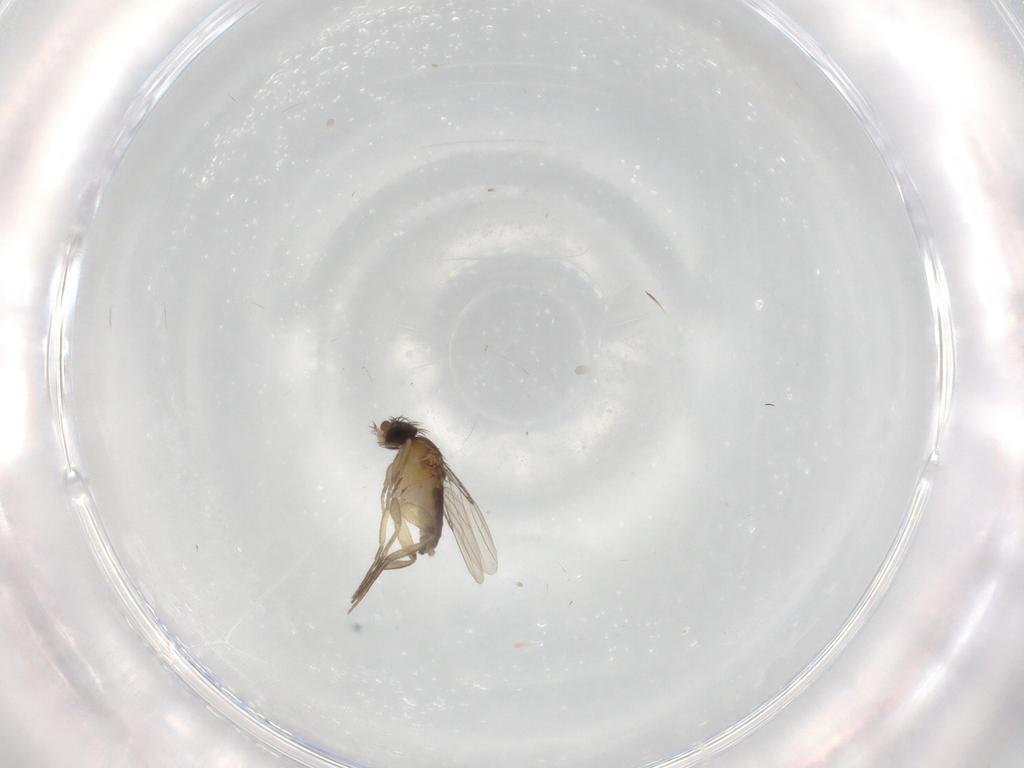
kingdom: Animalia
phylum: Arthropoda
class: Insecta
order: Diptera
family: Phoridae
